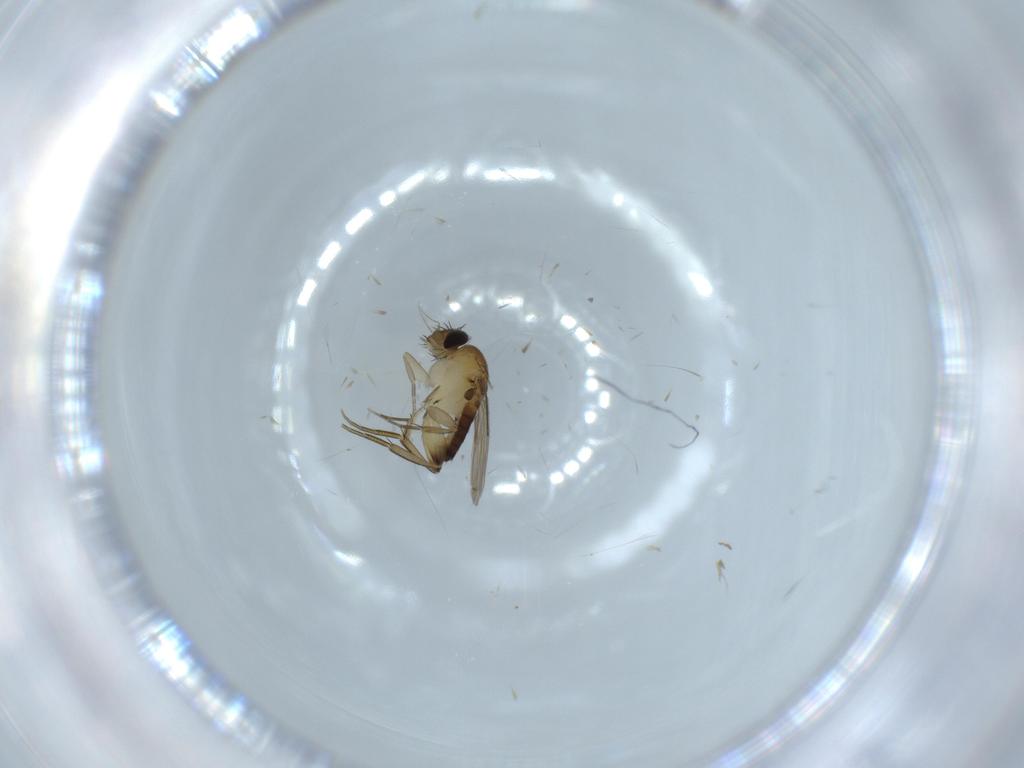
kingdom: Animalia
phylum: Arthropoda
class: Insecta
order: Diptera
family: Phoridae
